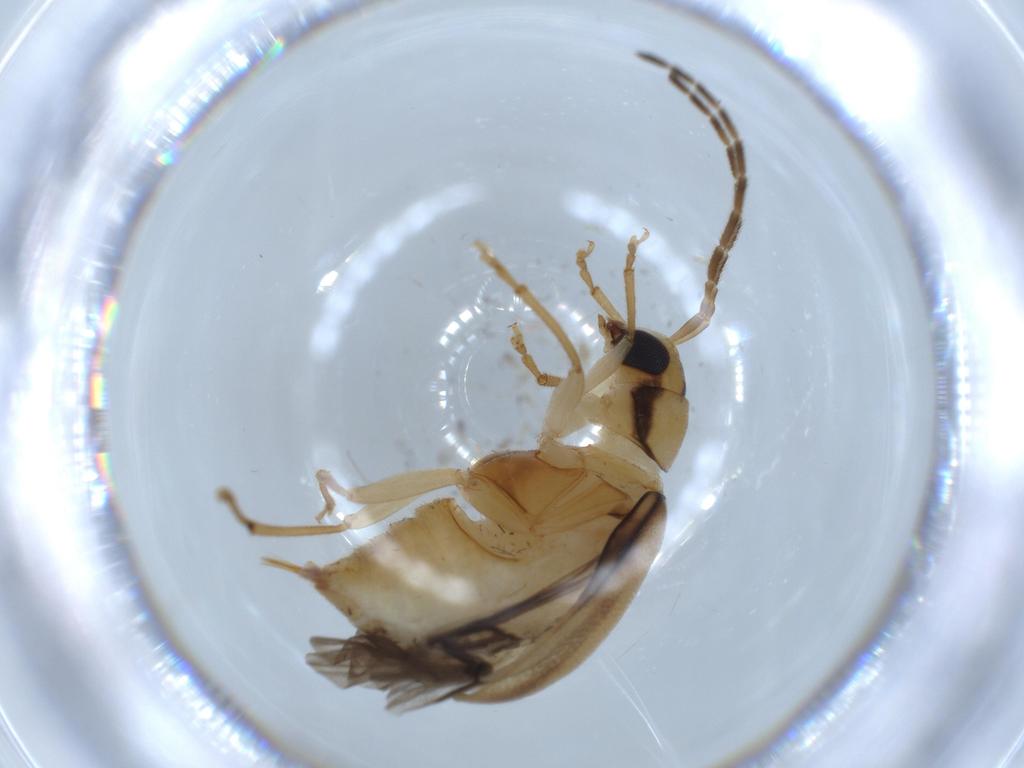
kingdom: Animalia
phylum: Arthropoda
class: Insecta
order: Coleoptera
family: Chrysomelidae
